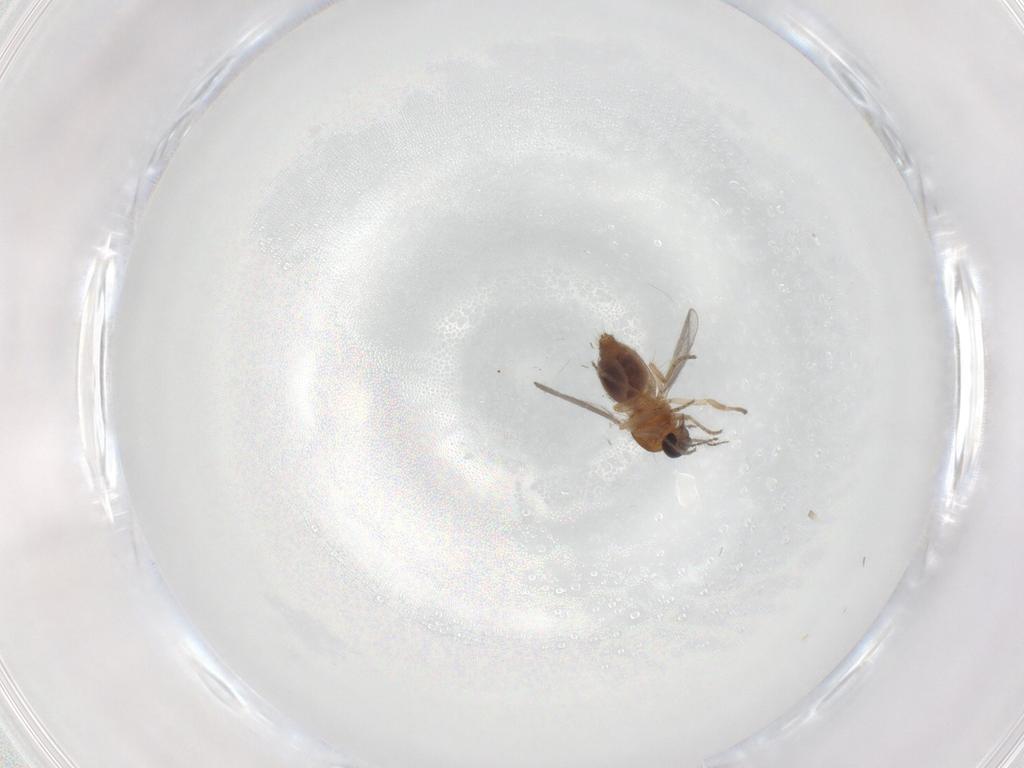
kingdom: Animalia
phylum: Arthropoda
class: Insecta
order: Diptera
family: Ceratopogonidae
